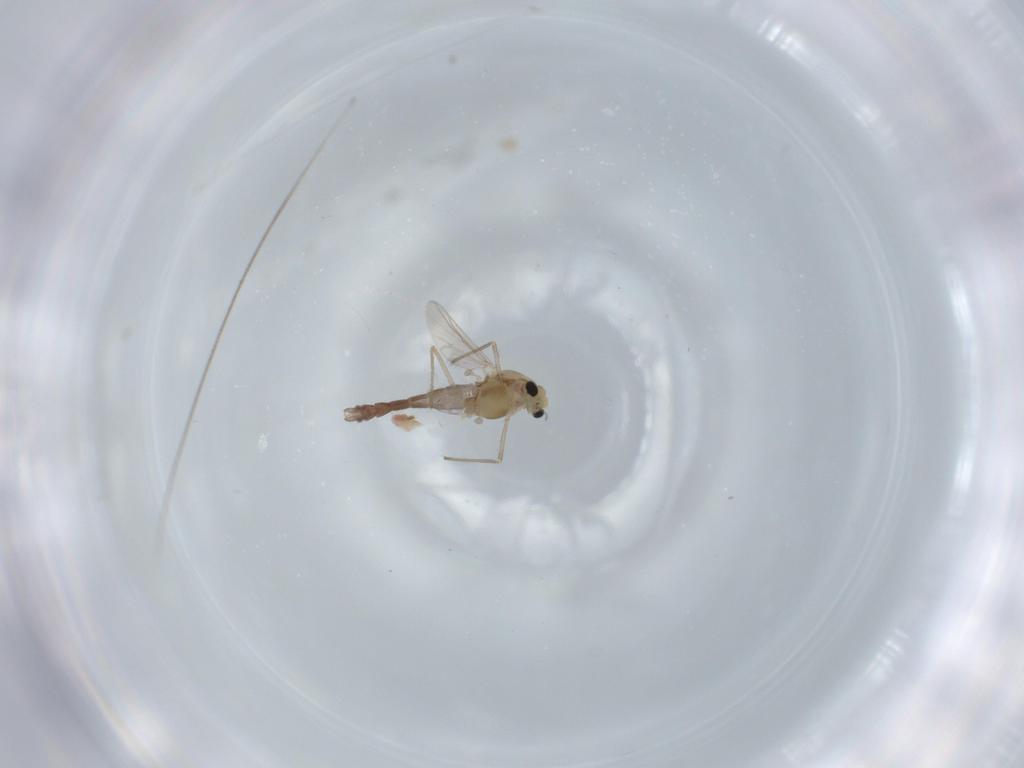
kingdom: Animalia
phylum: Arthropoda
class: Insecta
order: Diptera
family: Chironomidae
